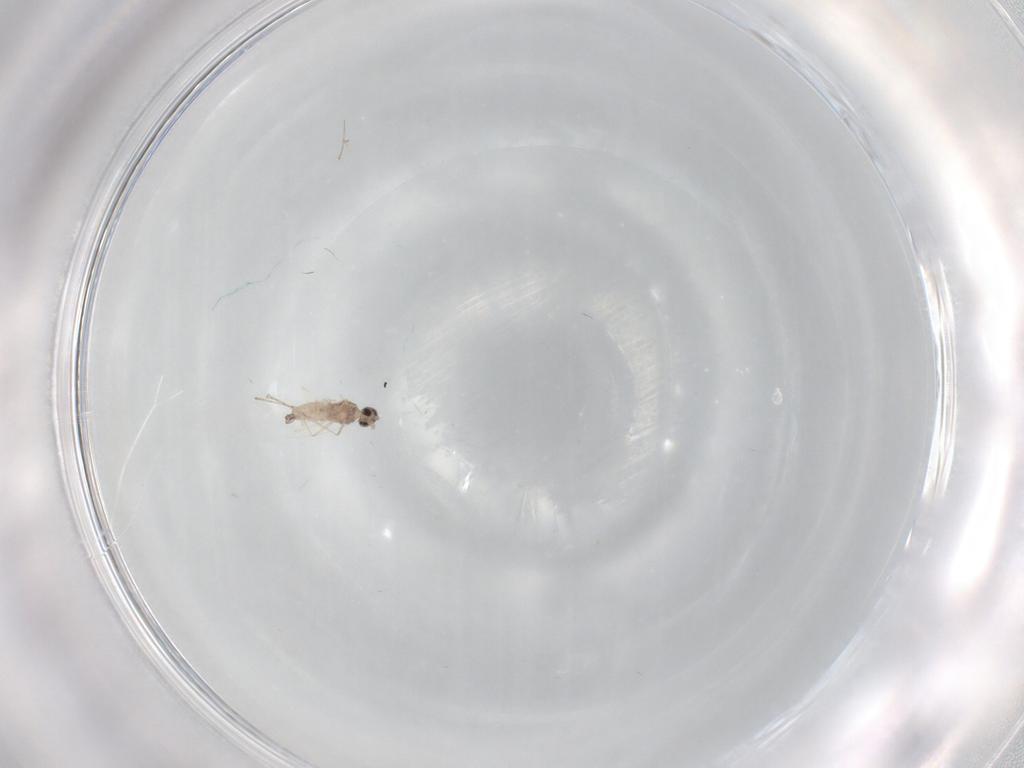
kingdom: Animalia
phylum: Arthropoda
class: Insecta
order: Diptera
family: Cecidomyiidae
